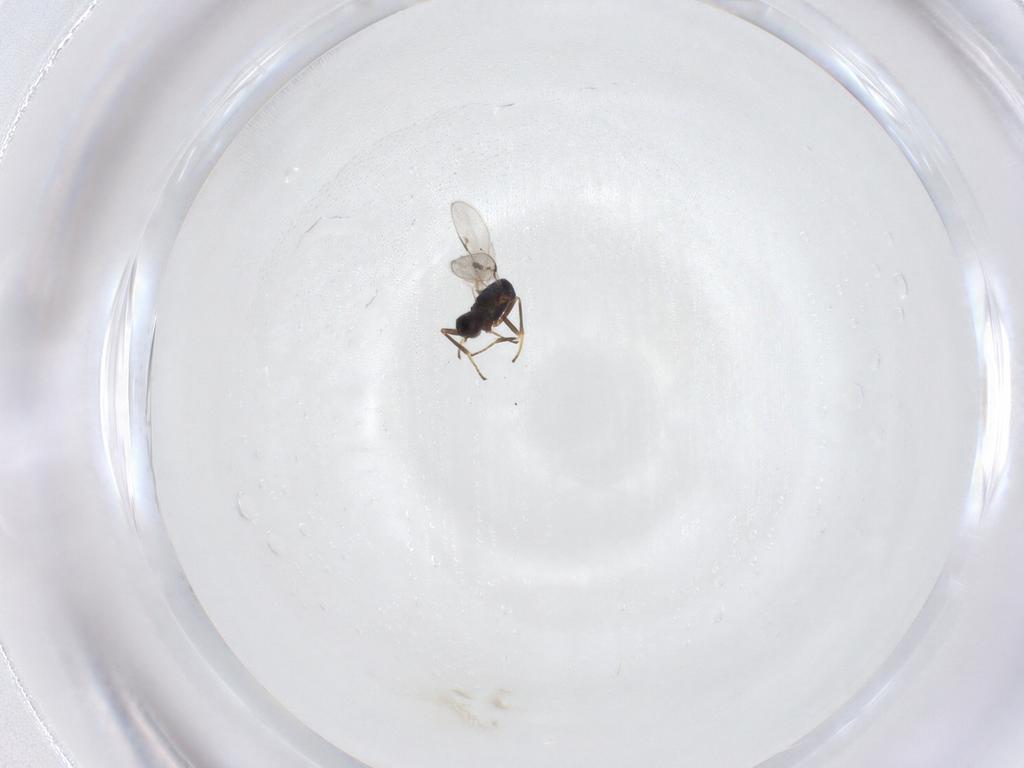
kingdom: Animalia
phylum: Arthropoda
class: Insecta
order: Hymenoptera
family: Encyrtidae
